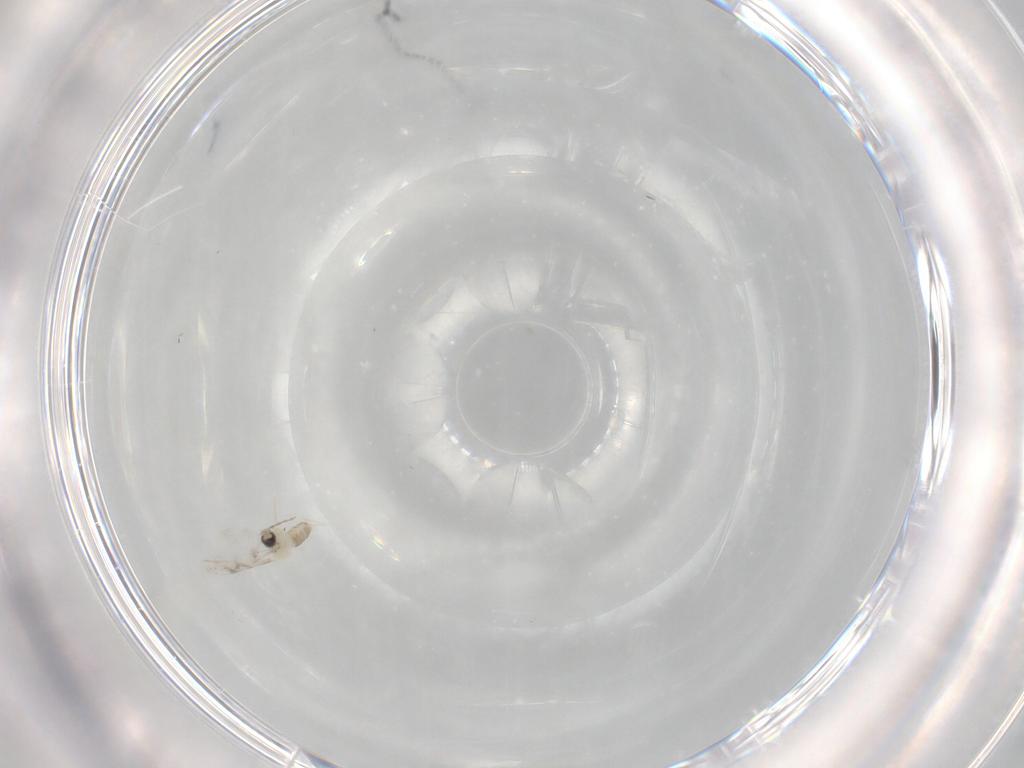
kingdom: Animalia
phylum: Arthropoda
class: Insecta
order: Diptera
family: Cecidomyiidae
